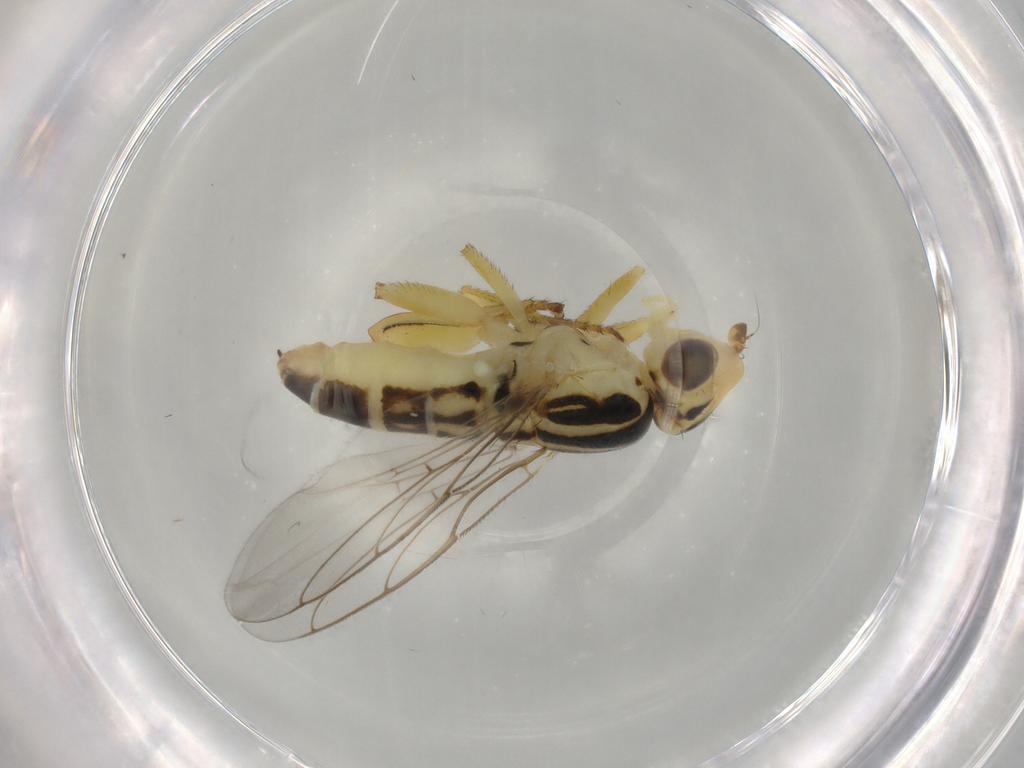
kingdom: Animalia
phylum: Arthropoda
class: Insecta
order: Diptera
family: Chloropidae
